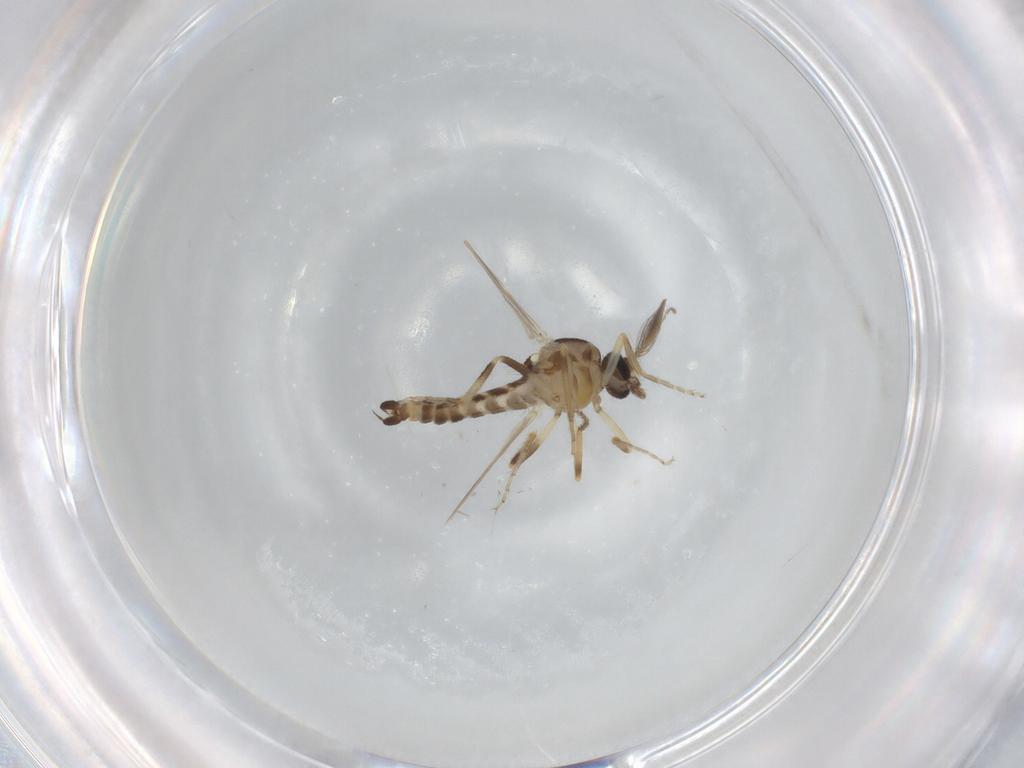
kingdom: Animalia
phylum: Arthropoda
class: Insecta
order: Diptera
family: Ceratopogonidae
